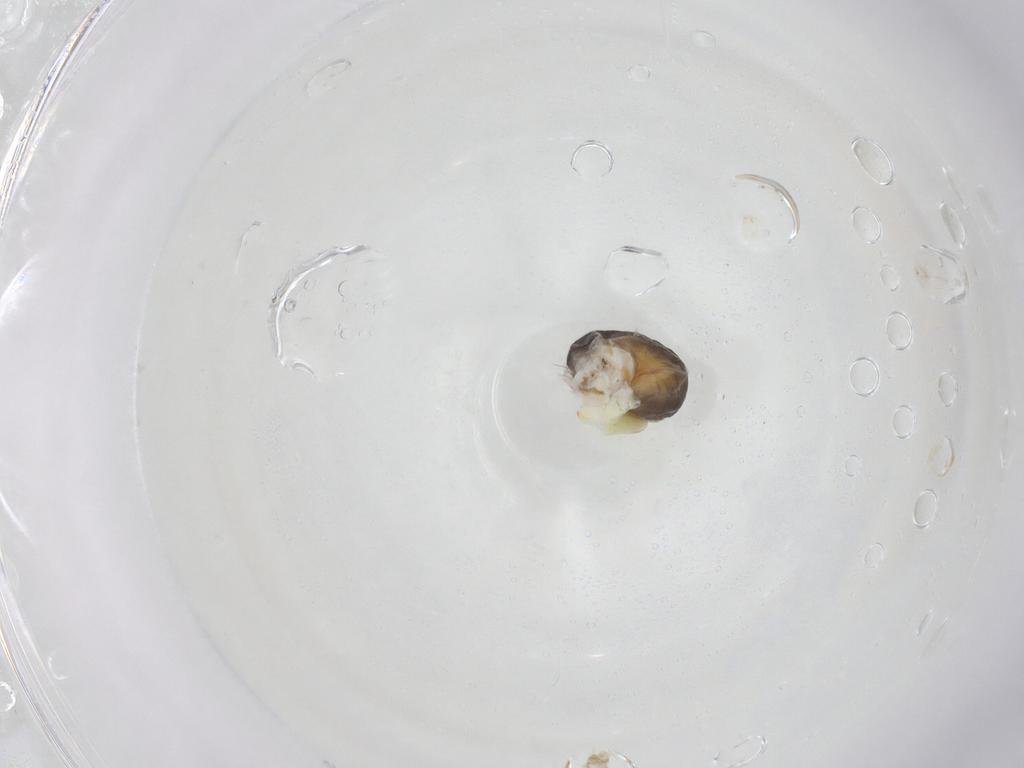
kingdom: Animalia
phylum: Arthropoda
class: Insecta
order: Hymenoptera
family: Dryinidae
